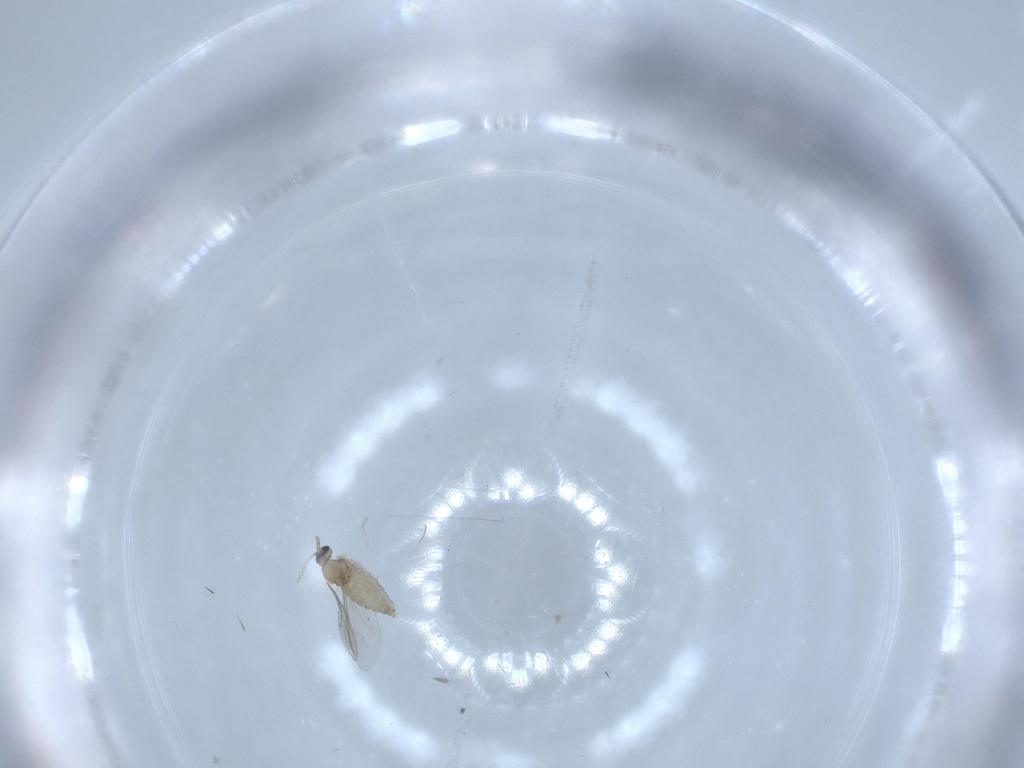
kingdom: Animalia
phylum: Arthropoda
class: Insecta
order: Diptera
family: Cecidomyiidae
